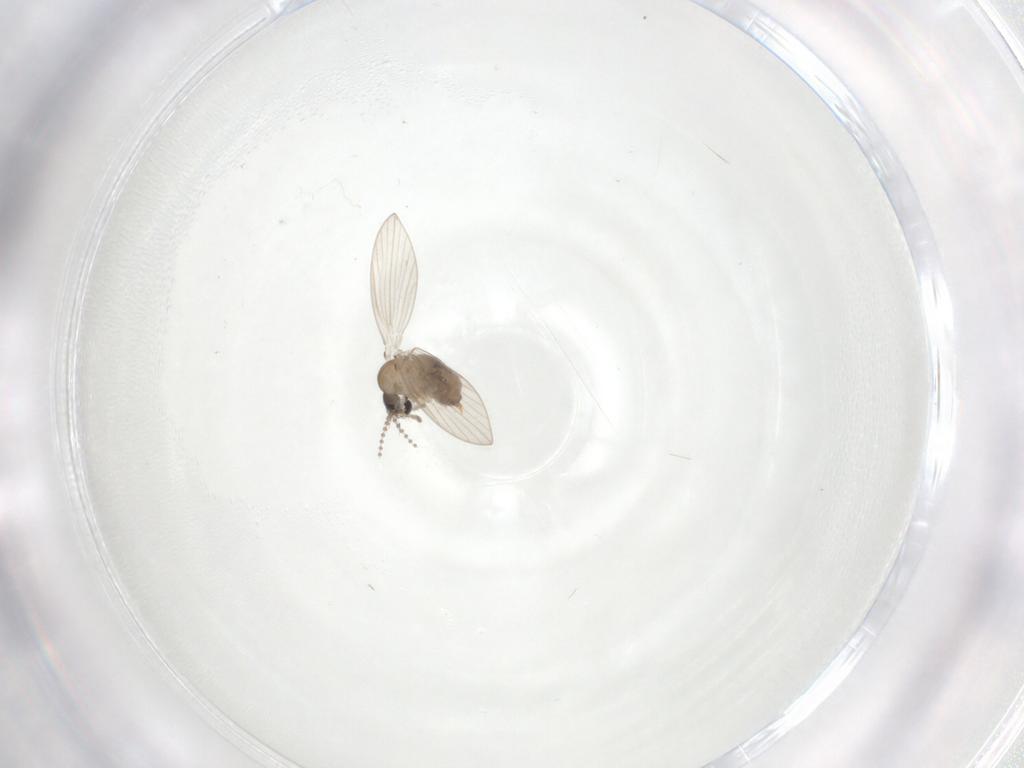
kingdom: Animalia
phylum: Arthropoda
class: Insecta
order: Diptera
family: Psychodidae
